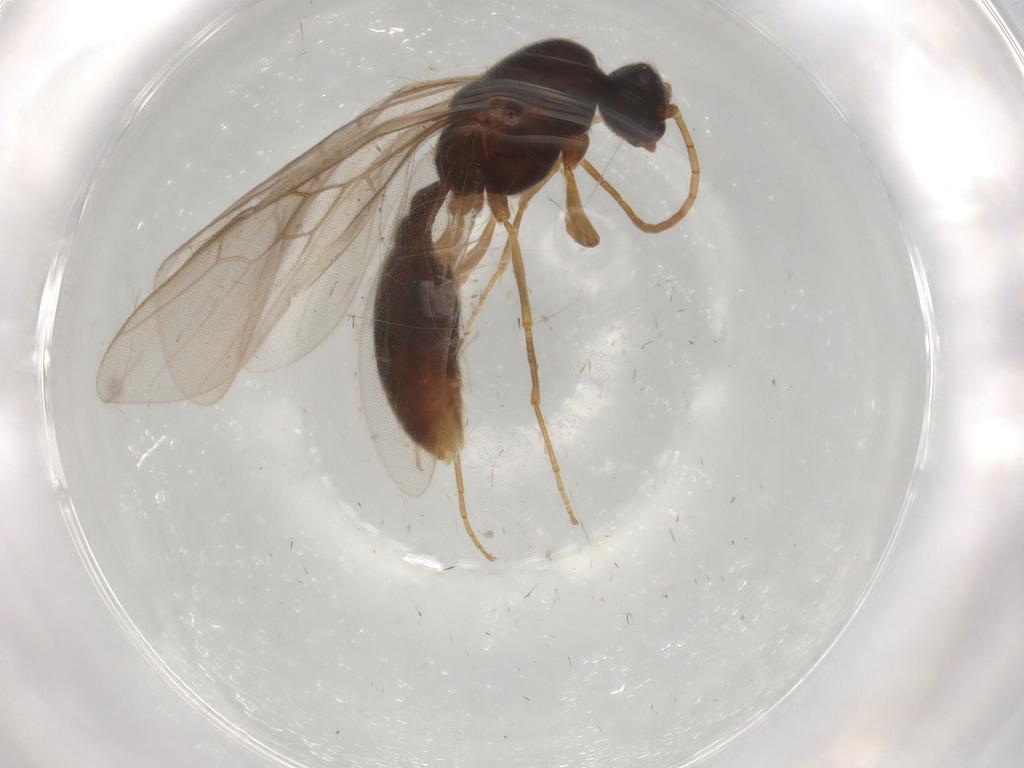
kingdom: Animalia
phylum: Arthropoda
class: Insecta
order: Hymenoptera
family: Formicidae
